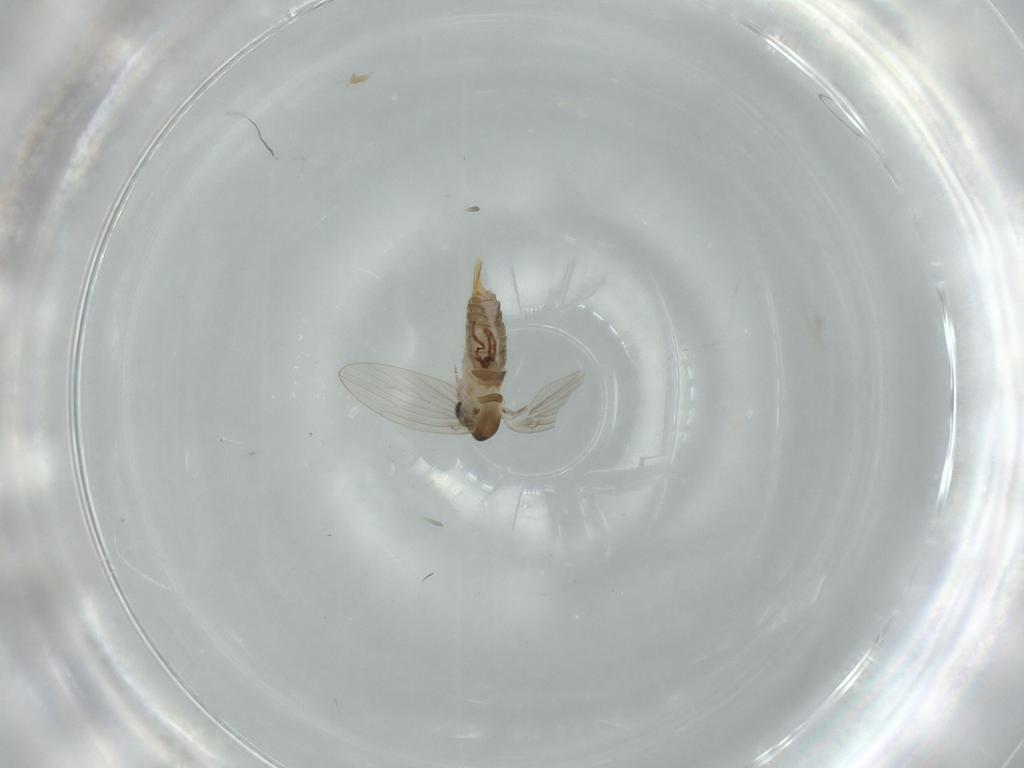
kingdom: Animalia
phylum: Arthropoda
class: Insecta
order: Diptera
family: Psychodidae
